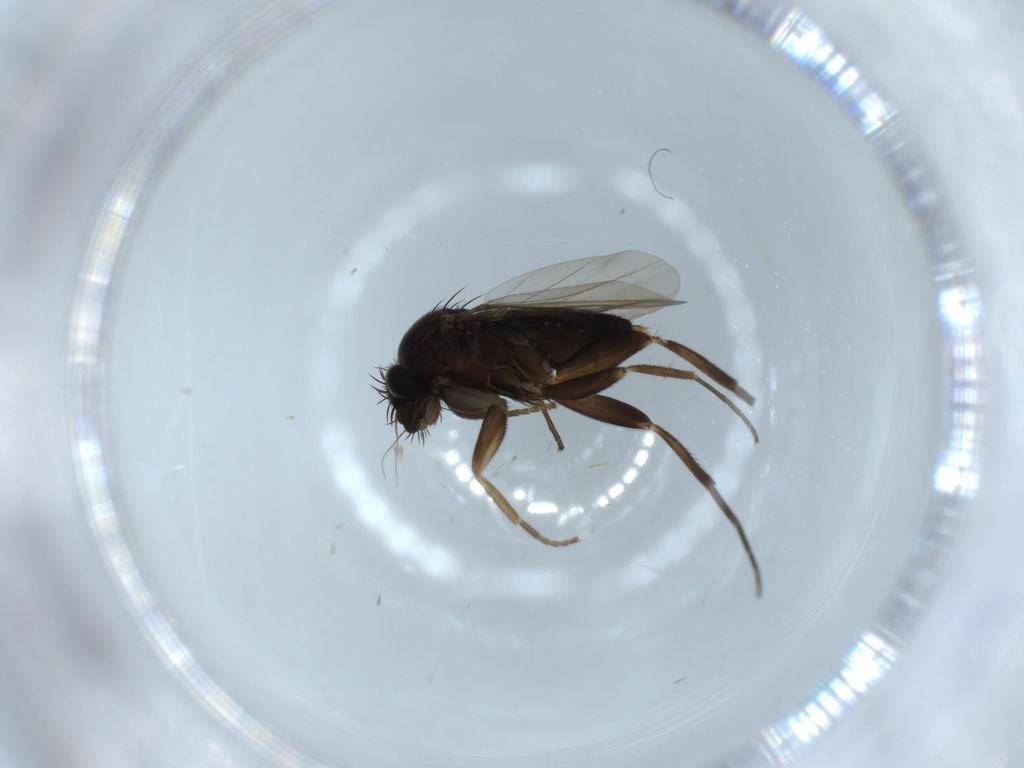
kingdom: Animalia
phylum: Arthropoda
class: Insecta
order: Diptera
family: Phoridae
